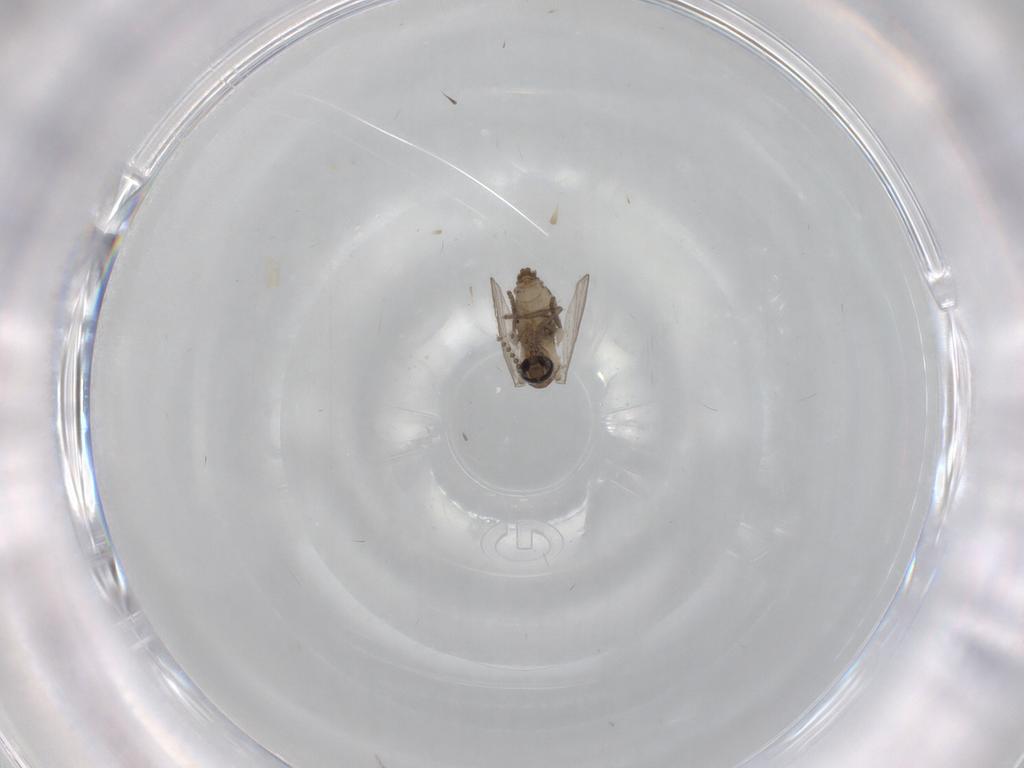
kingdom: Animalia
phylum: Arthropoda
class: Insecta
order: Diptera
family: Psychodidae
